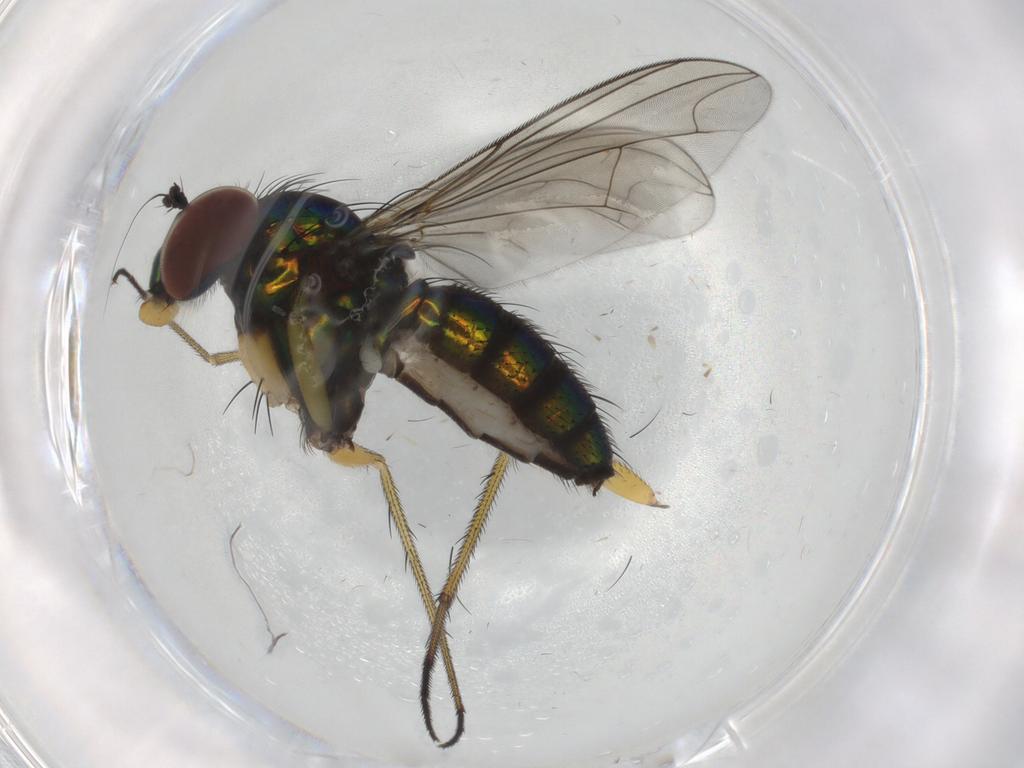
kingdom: Animalia
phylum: Arthropoda
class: Insecta
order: Diptera
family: Dolichopodidae
